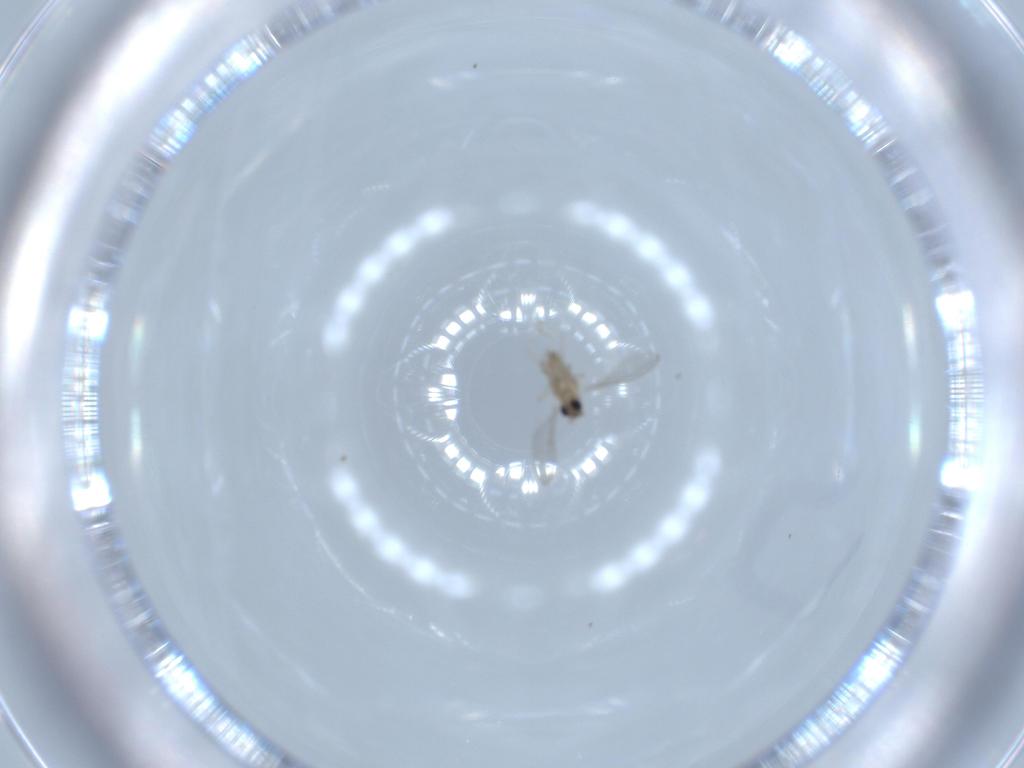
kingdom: Animalia
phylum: Arthropoda
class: Insecta
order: Diptera
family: Cecidomyiidae
